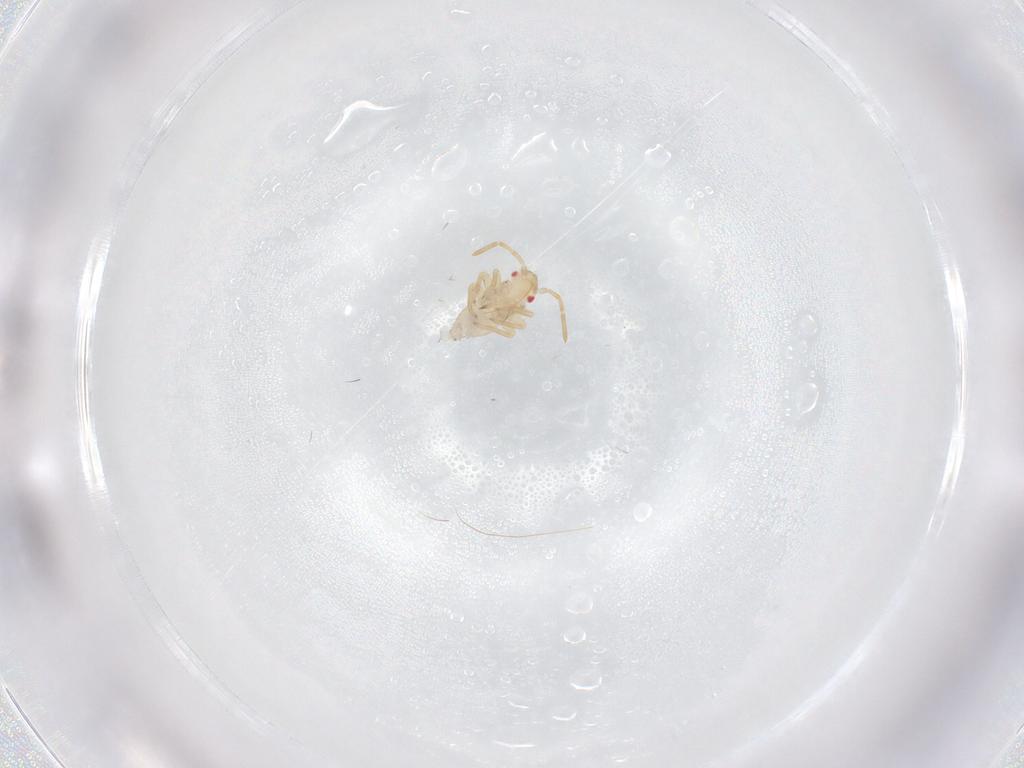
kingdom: Animalia
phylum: Arthropoda
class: Insecta
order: Hemiptera
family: Miridae
